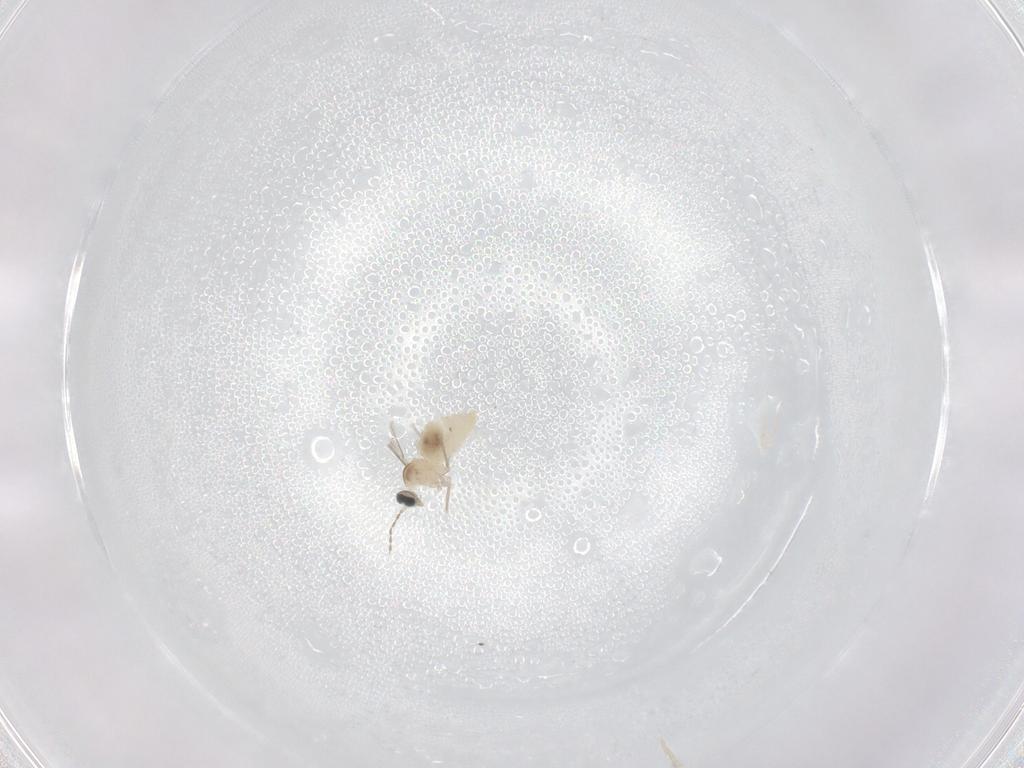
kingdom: Animalia
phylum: Arthropoda
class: Insecta
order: Diptera
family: Cecidomyiidae
